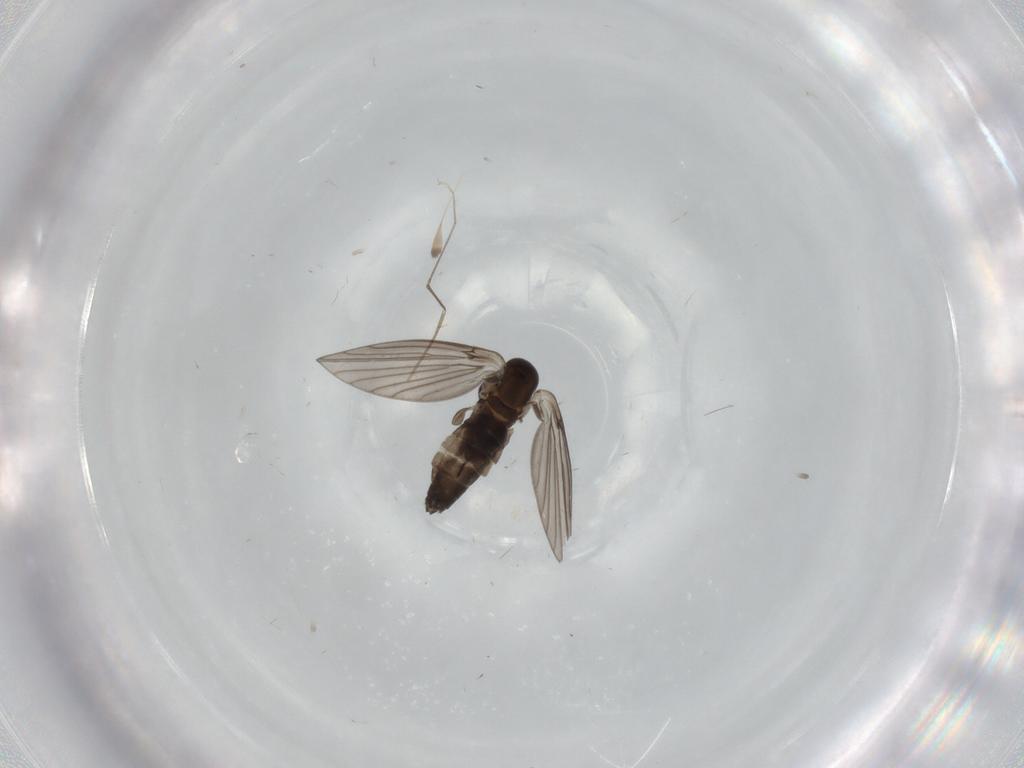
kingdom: Animalia
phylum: Arthropoda
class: Insecta
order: Diptera
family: Cecidomyiidae
